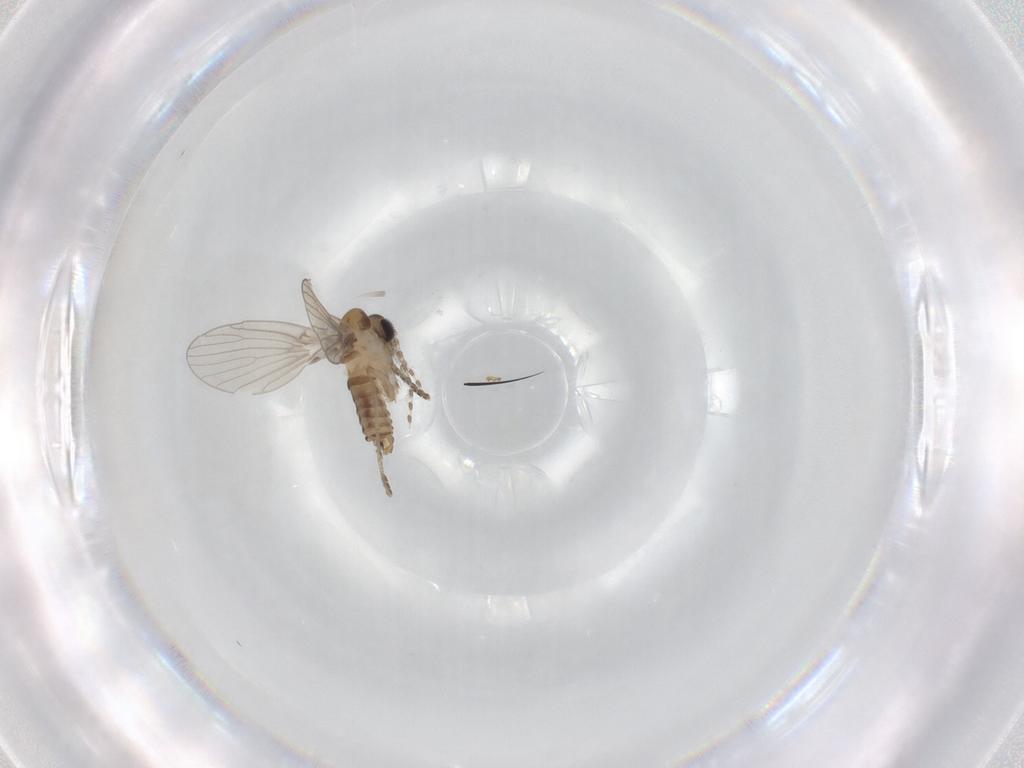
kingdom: Animalia
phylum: Arthropoda
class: Insecta
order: Diptera
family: Psychodidae
